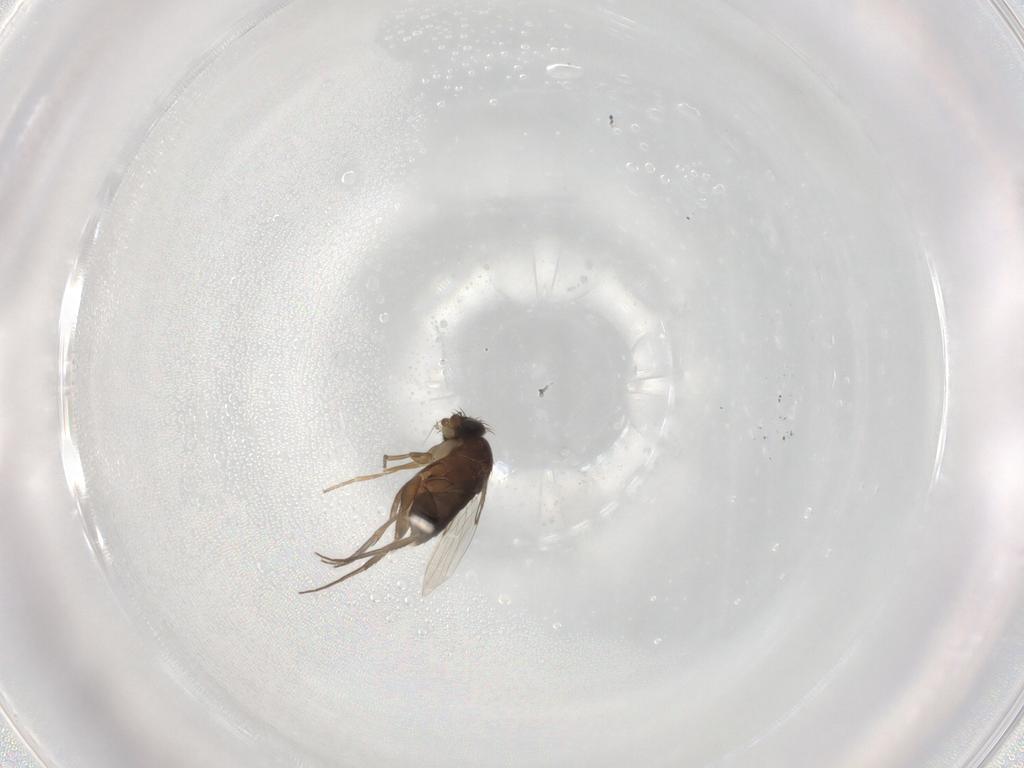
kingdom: Animalia
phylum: Arthropoda
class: Insecta
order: Diptera
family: Phoridae
